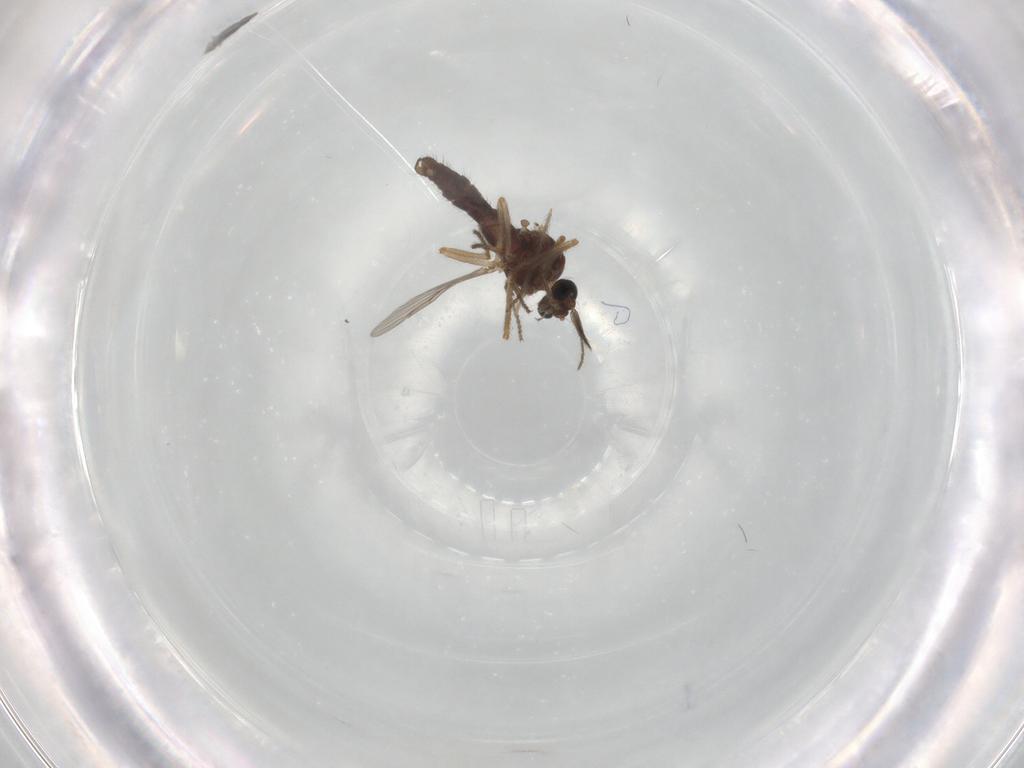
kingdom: Animalia
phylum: Arthropoda
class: Insecta
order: Diptera
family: Ceratopogonidae
